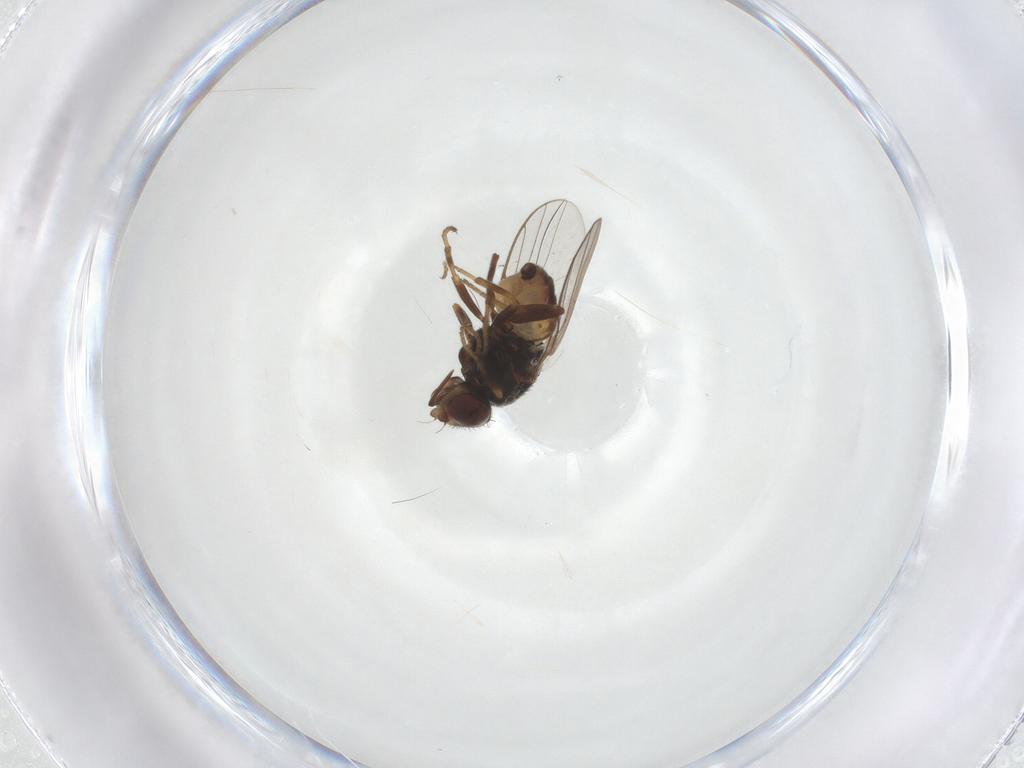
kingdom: Animalia
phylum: Arthropoda
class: Insecta
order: Diptera
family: Chloropidae
